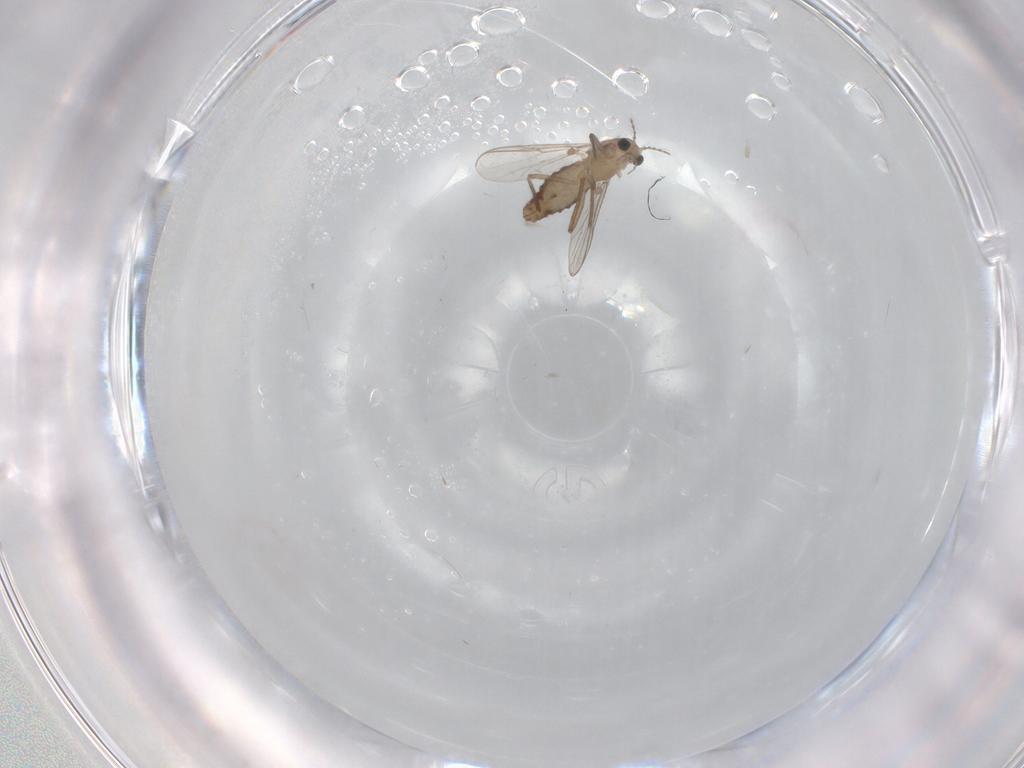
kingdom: Animalia
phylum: Arthropoda
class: Insecta
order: Diptera
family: Chironomidae
